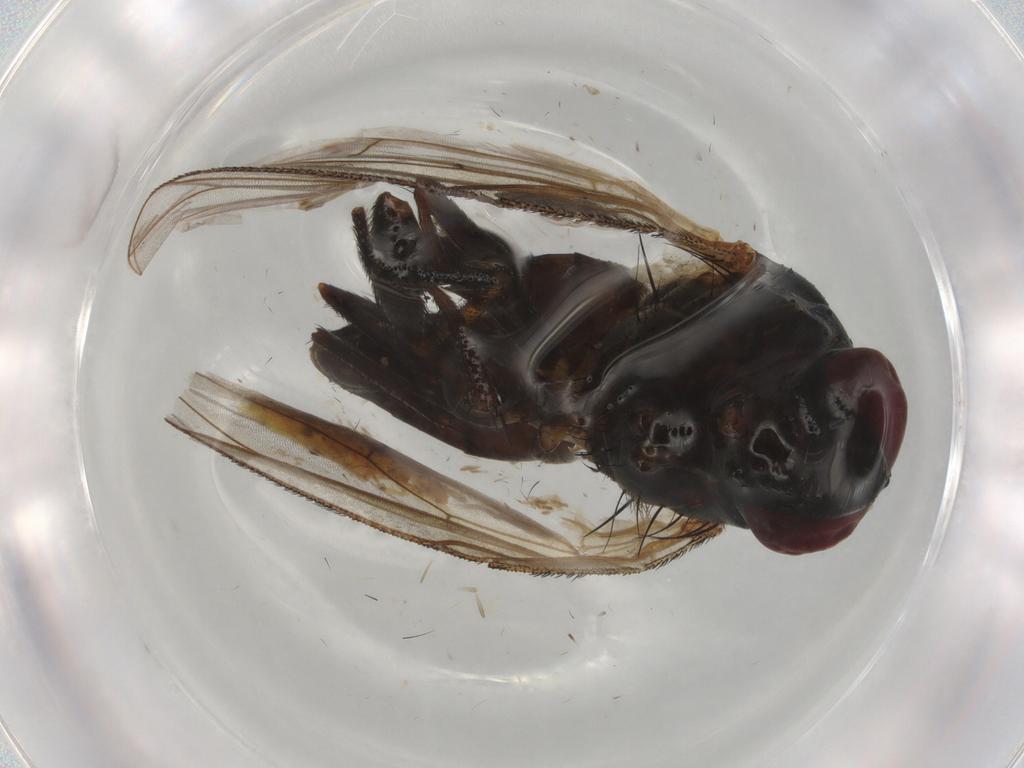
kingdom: Animalia
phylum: Arthropoda
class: Insecta
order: Diptera
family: Muscidae
